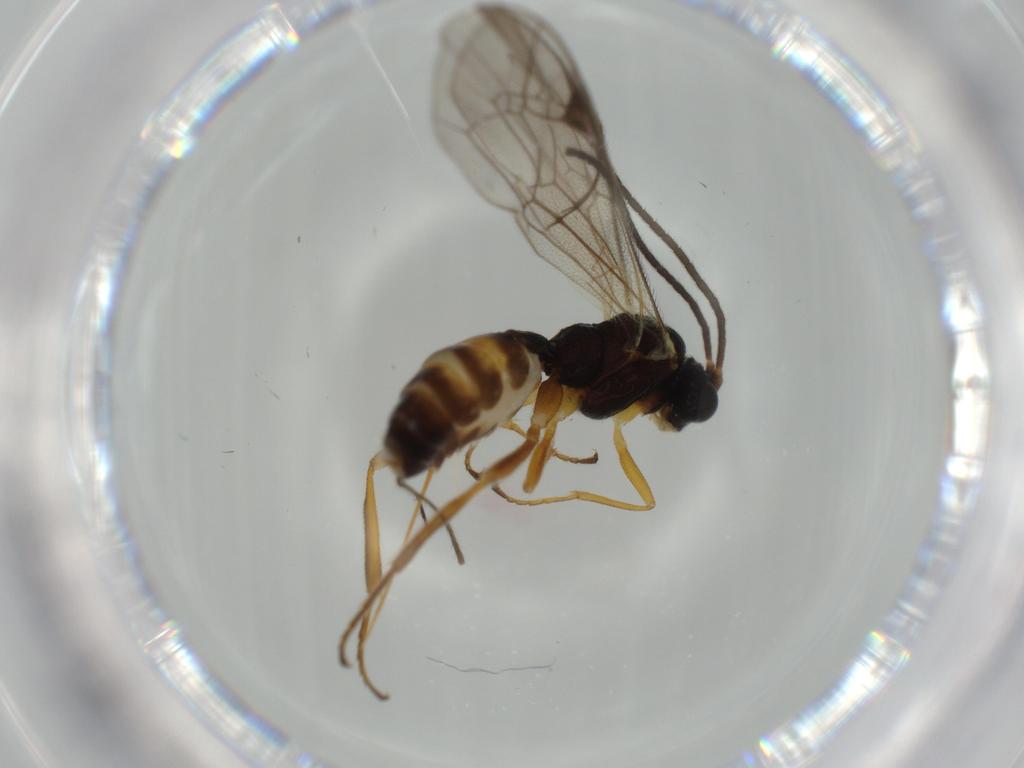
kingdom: Animalia
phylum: Arthropoda
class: Insecta
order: Hymenoptera
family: Ichneumonidae
